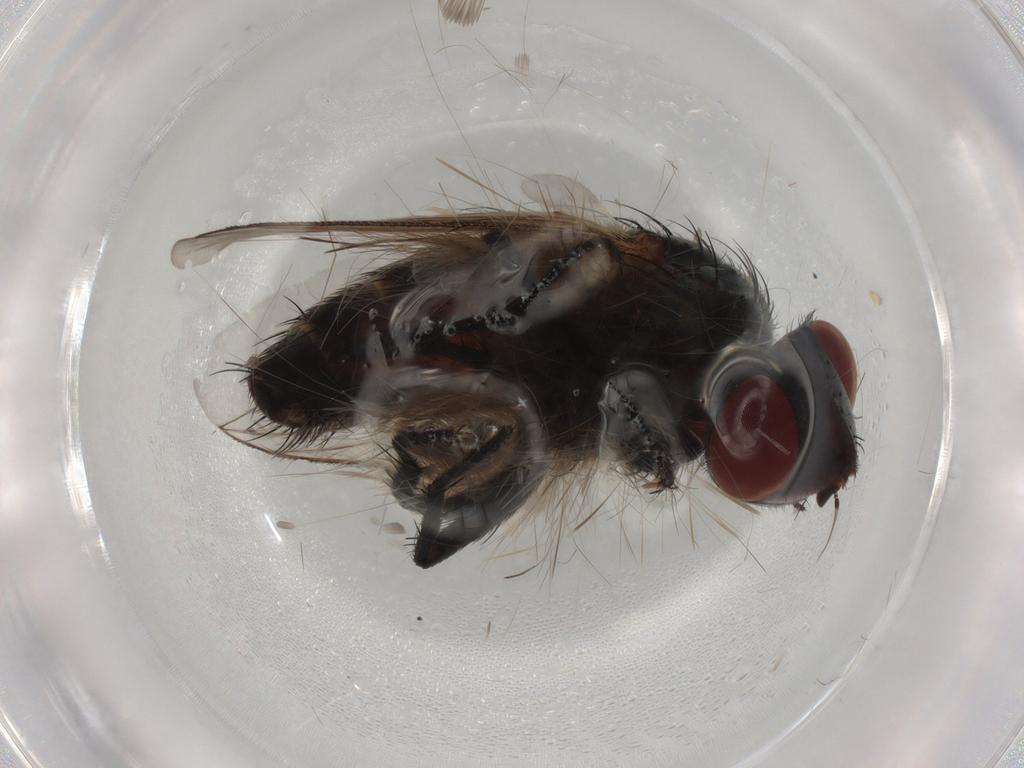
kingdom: Animalia
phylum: Arthropoda
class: Insecta
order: Diptera
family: Sarcophagidae
